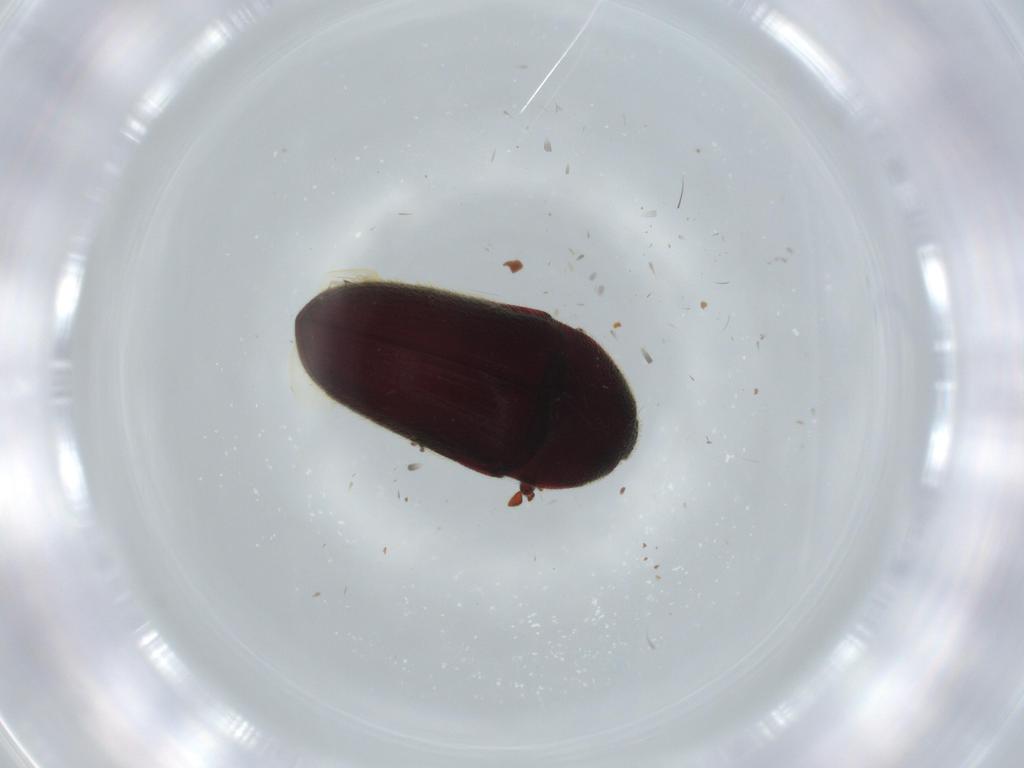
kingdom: Animalia
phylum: Arthropoda
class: Insecta
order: Coleoptera
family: Throscidae
